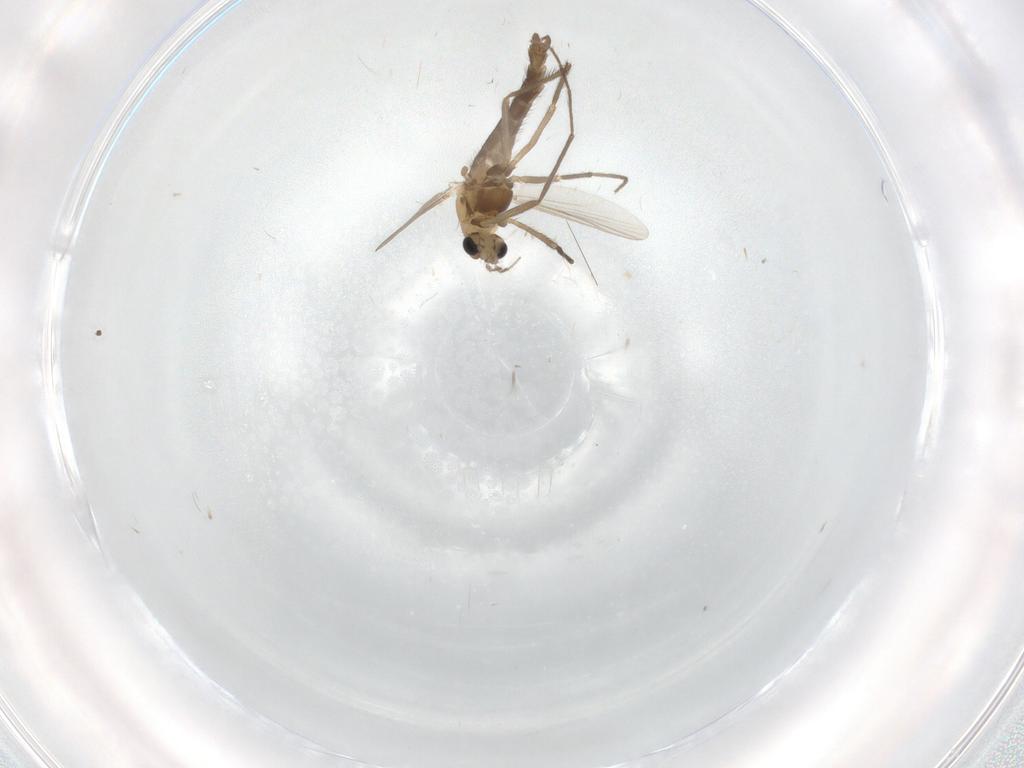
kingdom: Animalia
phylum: Arthropoda
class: Insecta
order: Diptera
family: Chironomidae
